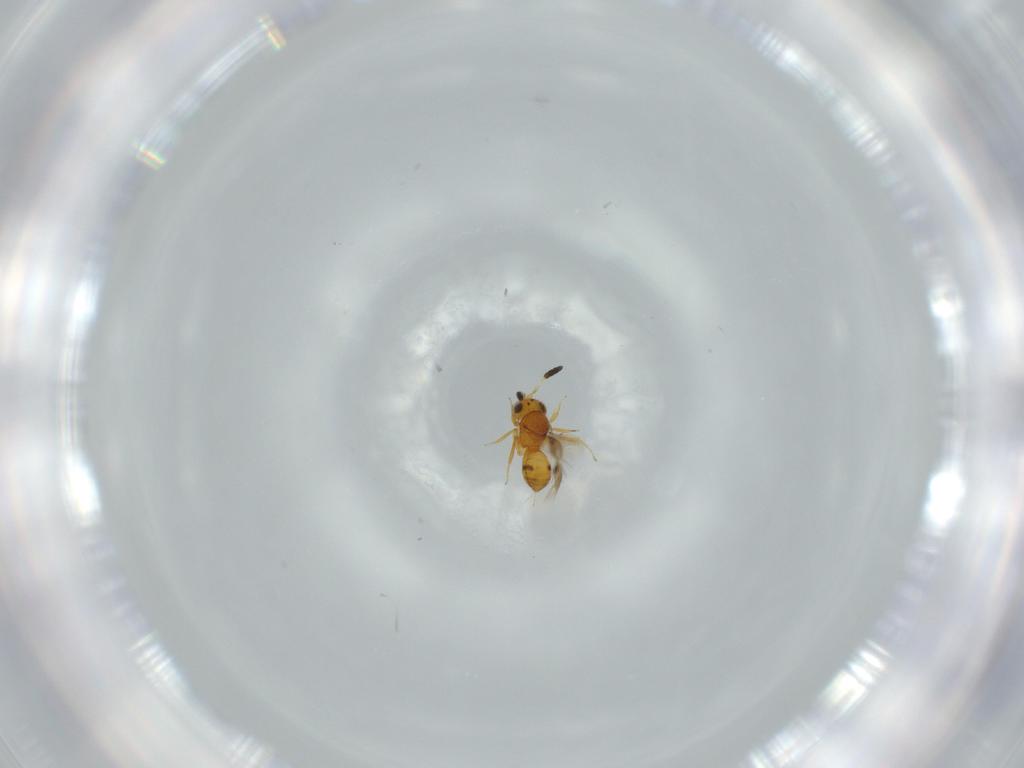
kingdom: Animalia
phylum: Arthropoda
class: Insecta
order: Hymenoptera
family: Scelionidae
